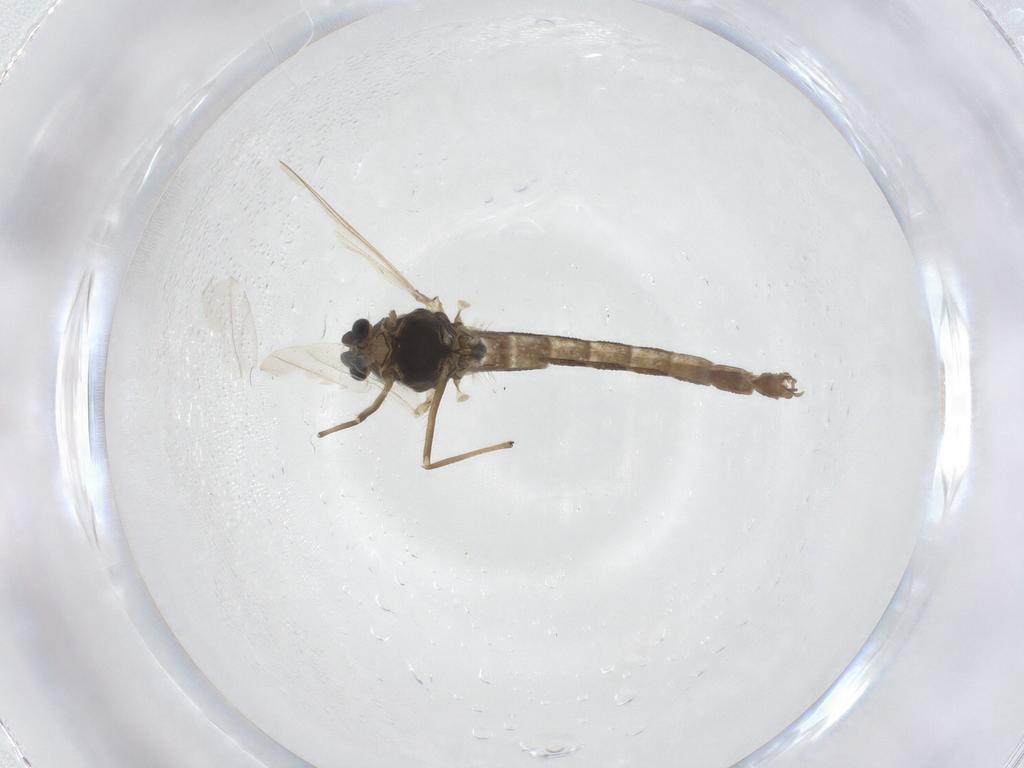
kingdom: Animalia
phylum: Arthropoda
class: Insecta
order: Diptera
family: Chironomidae
